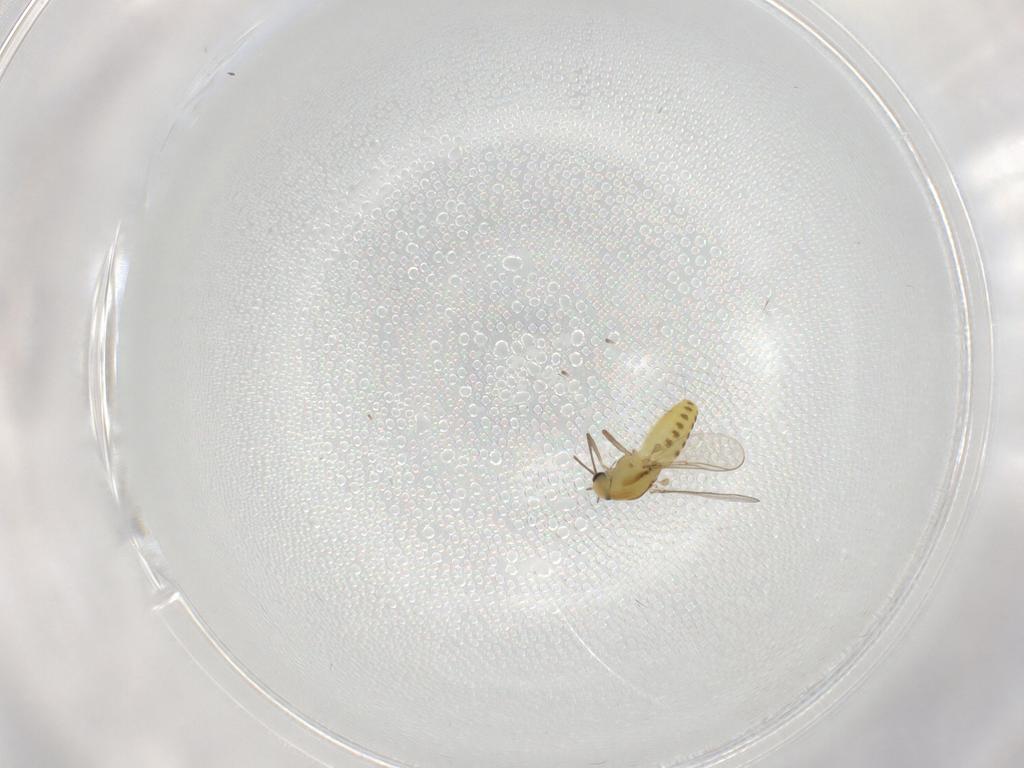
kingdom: Animalia
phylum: Arthropoda
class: Insecta
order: Diptera
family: Chironomidae
